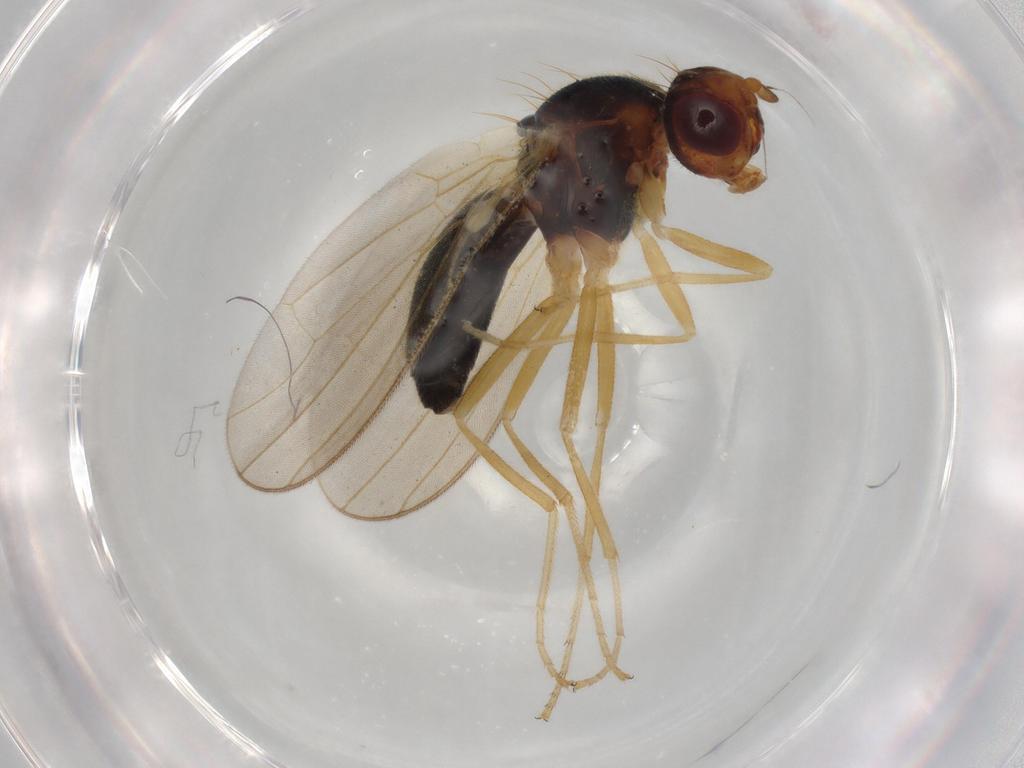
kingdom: Animalia
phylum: Arthropoda
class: Insecta
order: Diptera
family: Psilidae
